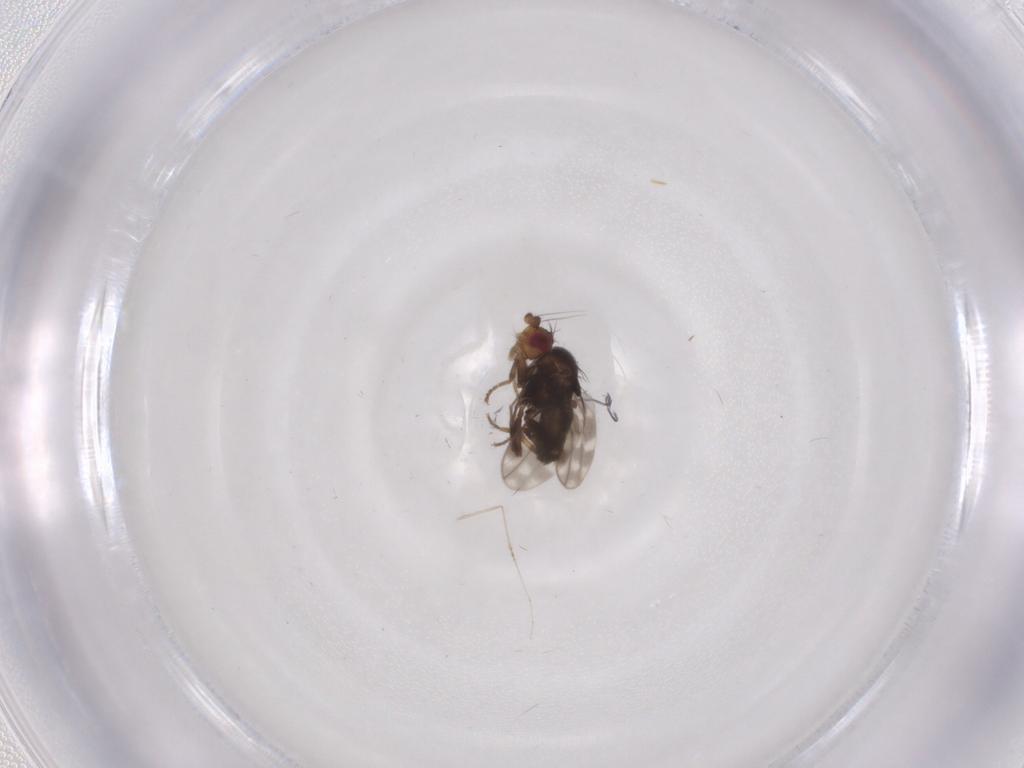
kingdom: Animalia
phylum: Arthropoda
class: Insecta
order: Diptera
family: Sphaeroceridae
